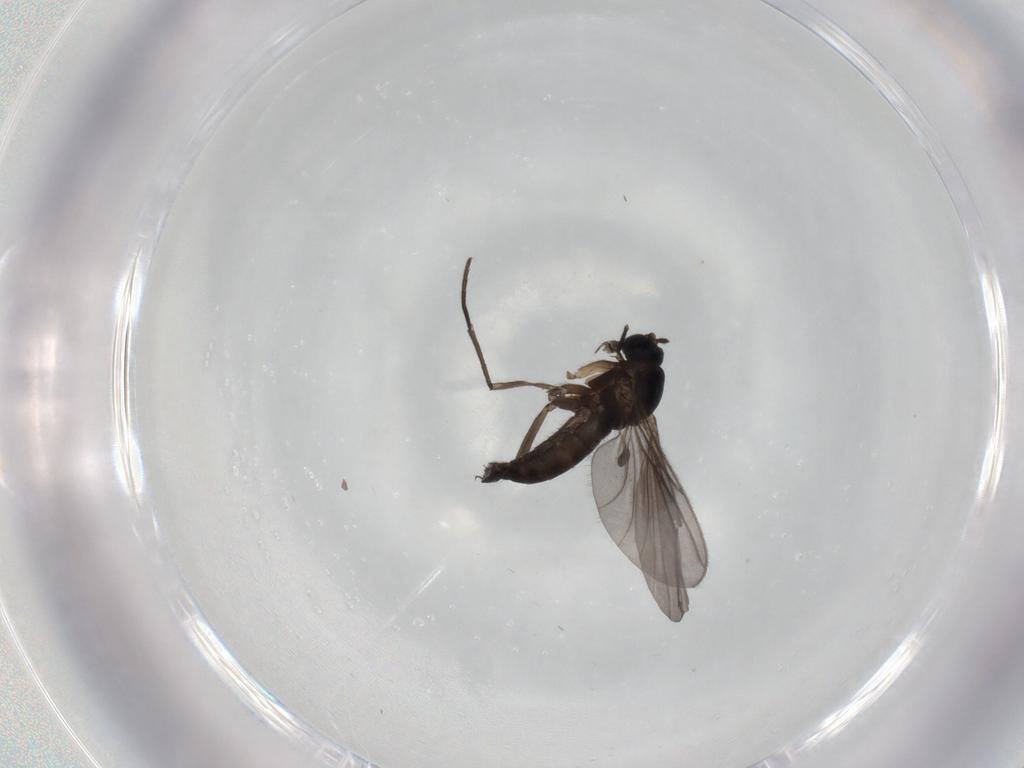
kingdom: Animalia
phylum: Arthropoda
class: Insecta
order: Diptera
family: Sciaridae
